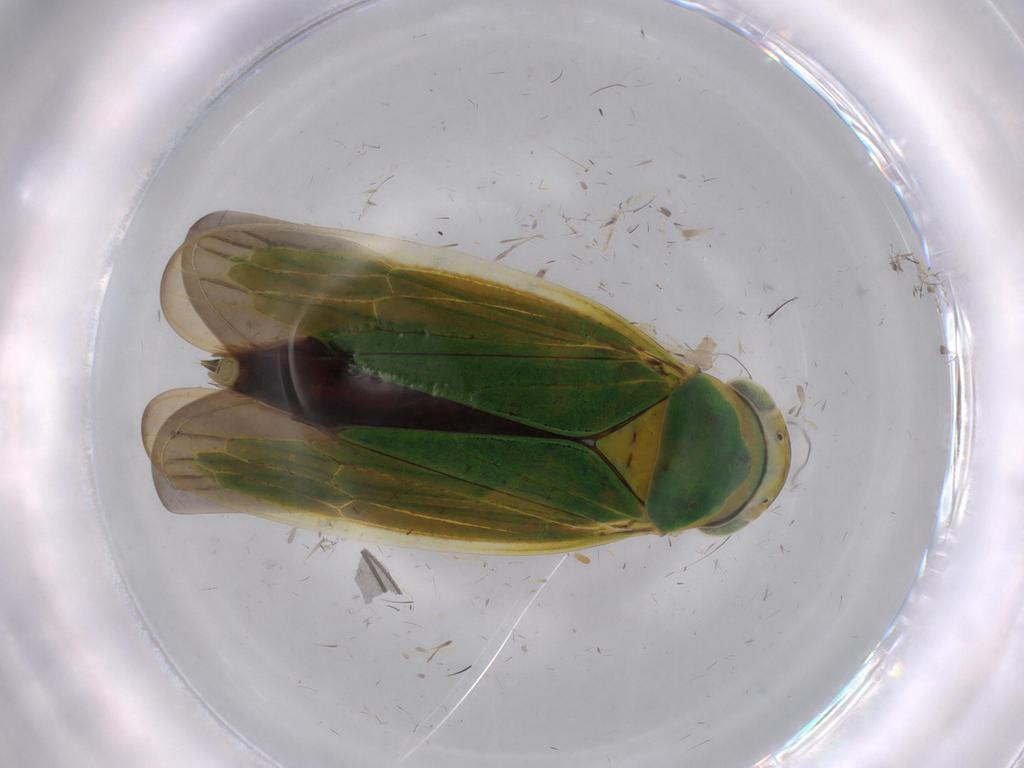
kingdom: Animalia
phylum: Arthropoda
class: Insecta
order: Hemiptera
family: Cicadellidae
